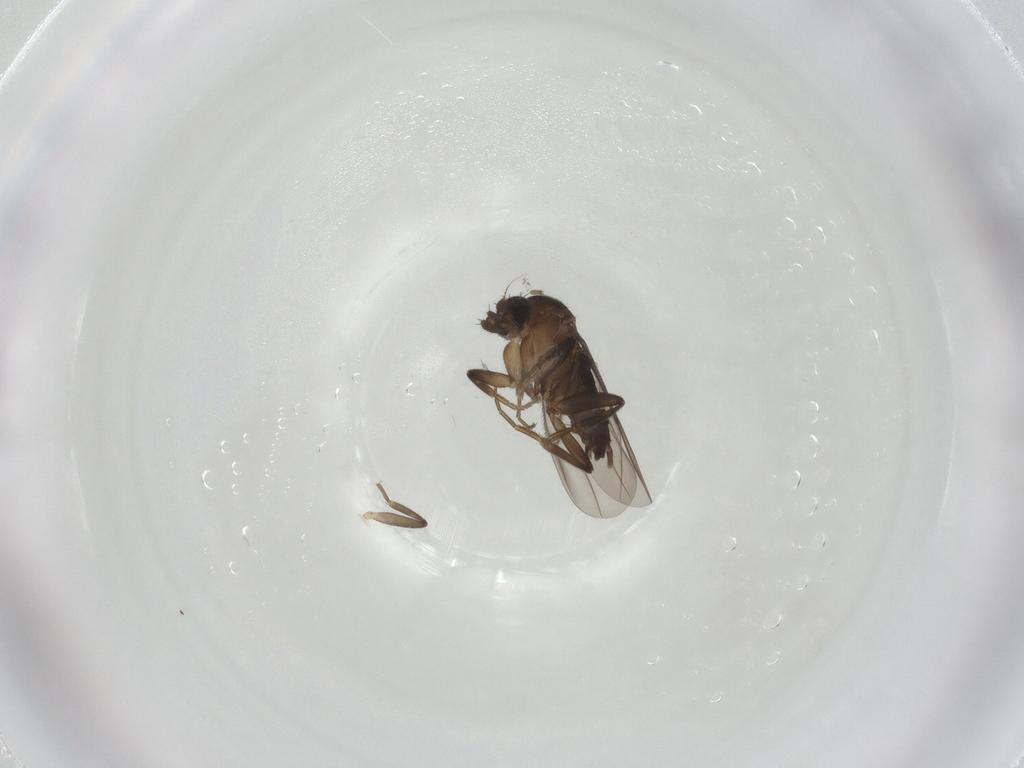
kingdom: Animalia
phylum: Arthropoda
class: Insecta
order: Diptera
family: Phoridae
